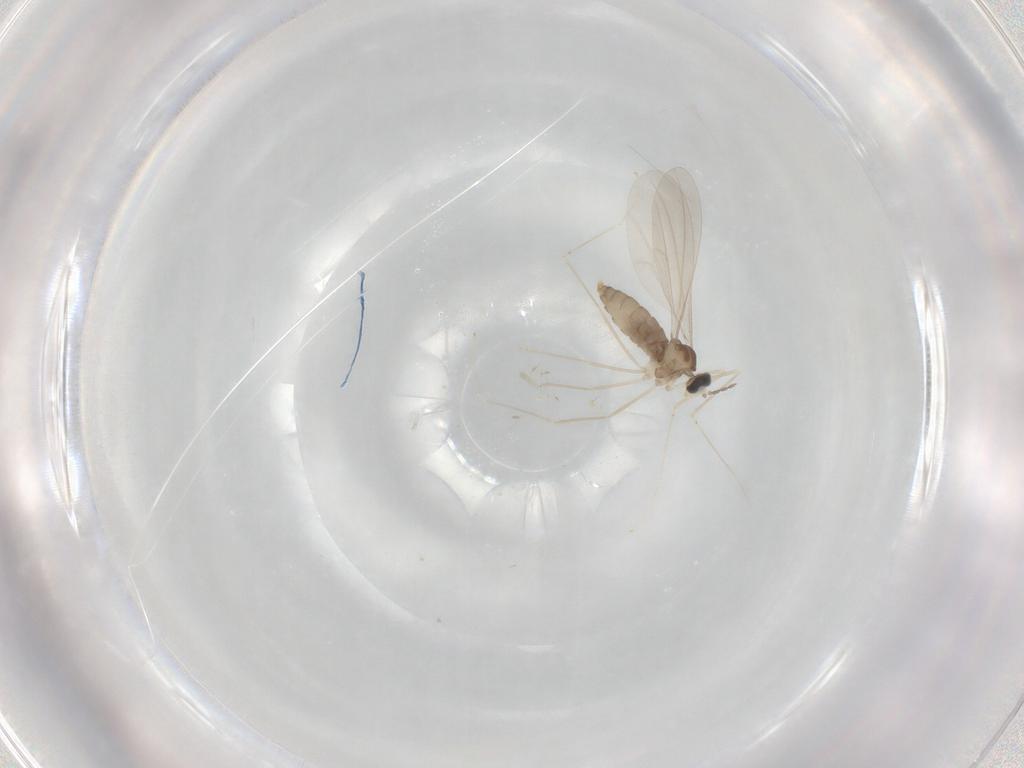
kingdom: Animalia
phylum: Arthropoda
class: Insecta
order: Diptera
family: Cecidomyiidae
